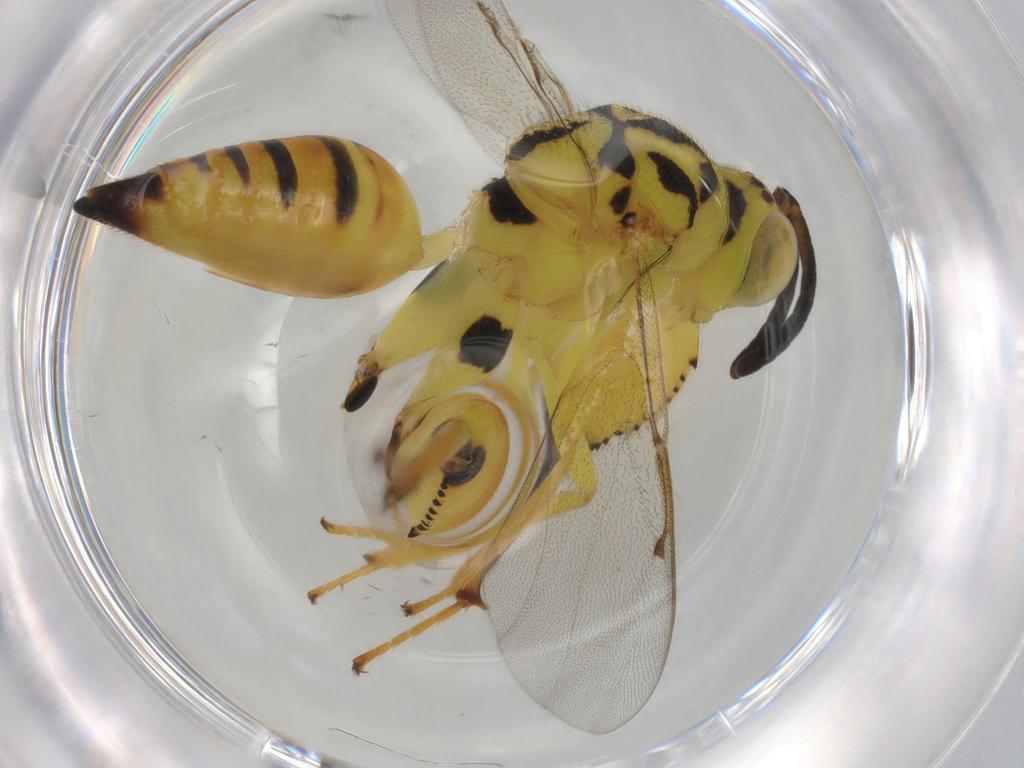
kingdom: Animalia
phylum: Arthropoda
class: Insecta
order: Hymenoptera
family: Chalcididae
